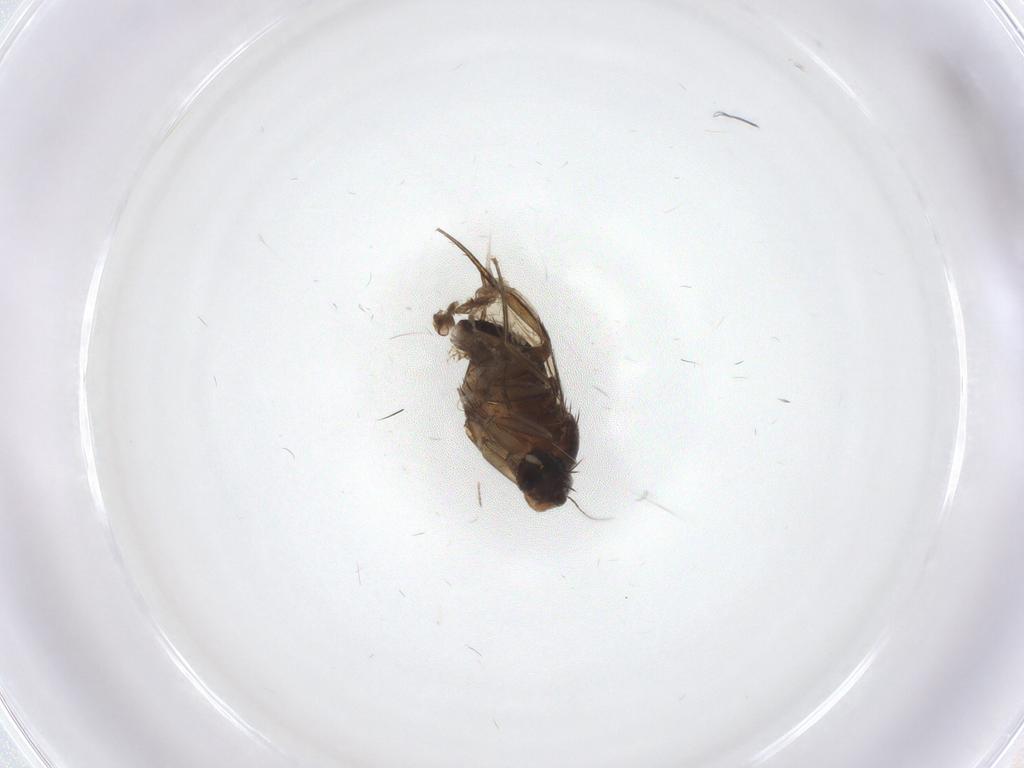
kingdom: Animalia
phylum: Arthropoda
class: Insecta
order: Diptera
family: Phoridae
